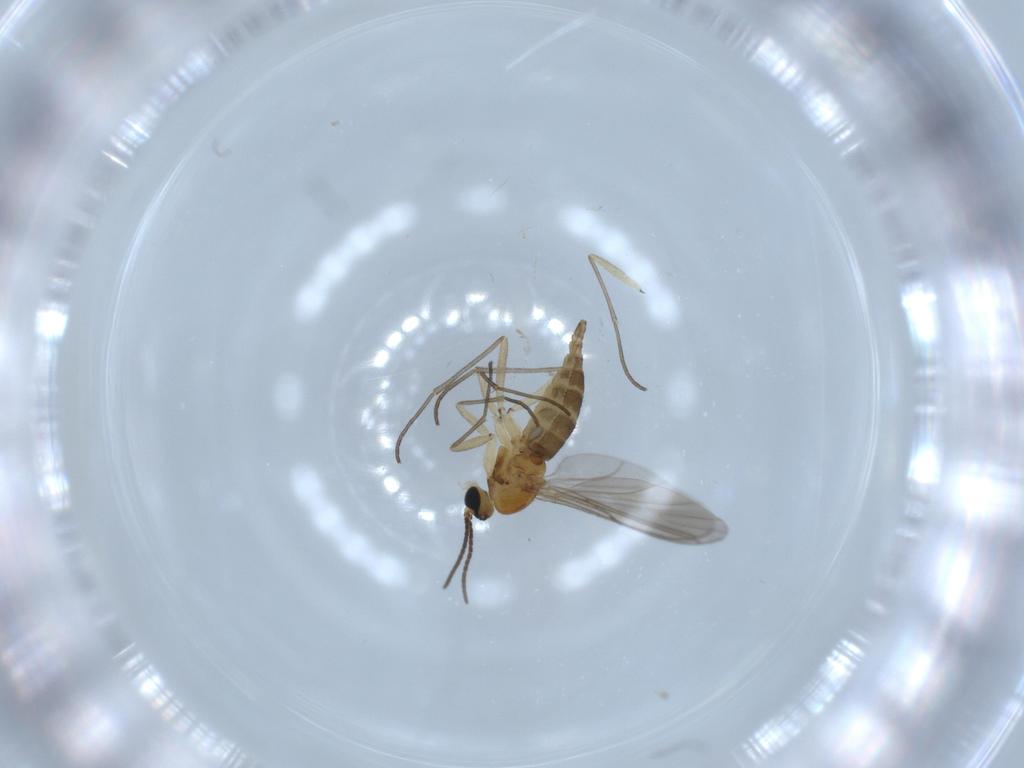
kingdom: Animalia
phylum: Arthropoda
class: Insecta
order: Diptera
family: Sciaridae
